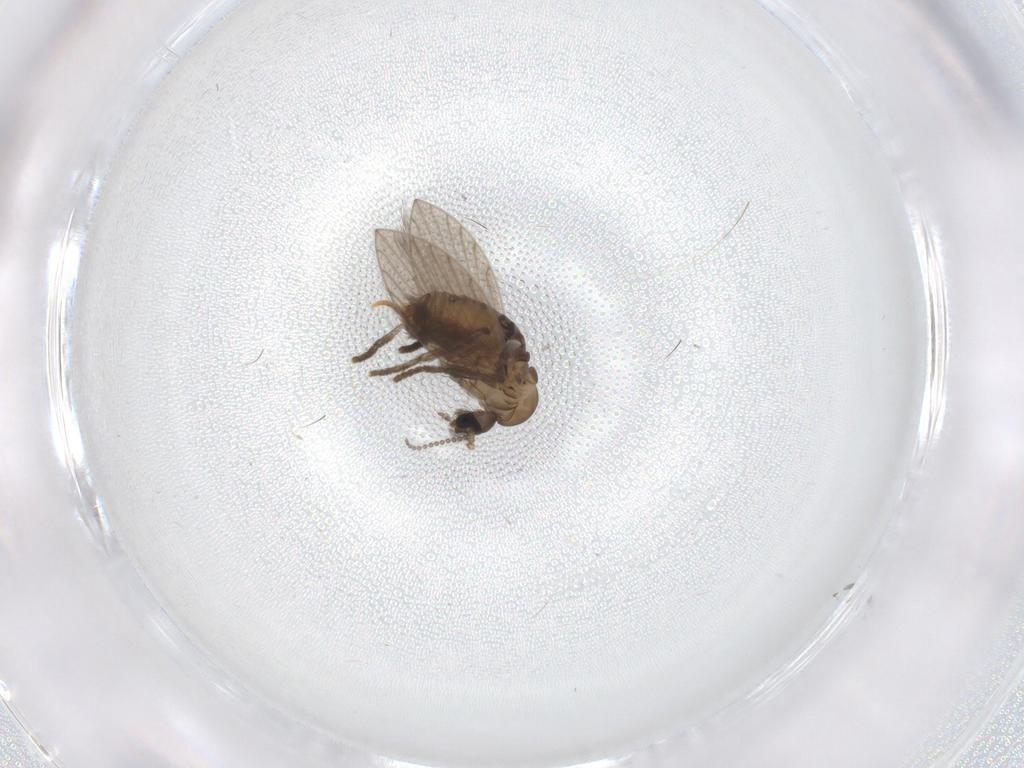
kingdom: Animalia
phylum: Arthropoda
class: Insecta
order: Diptera
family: Psychodidae
